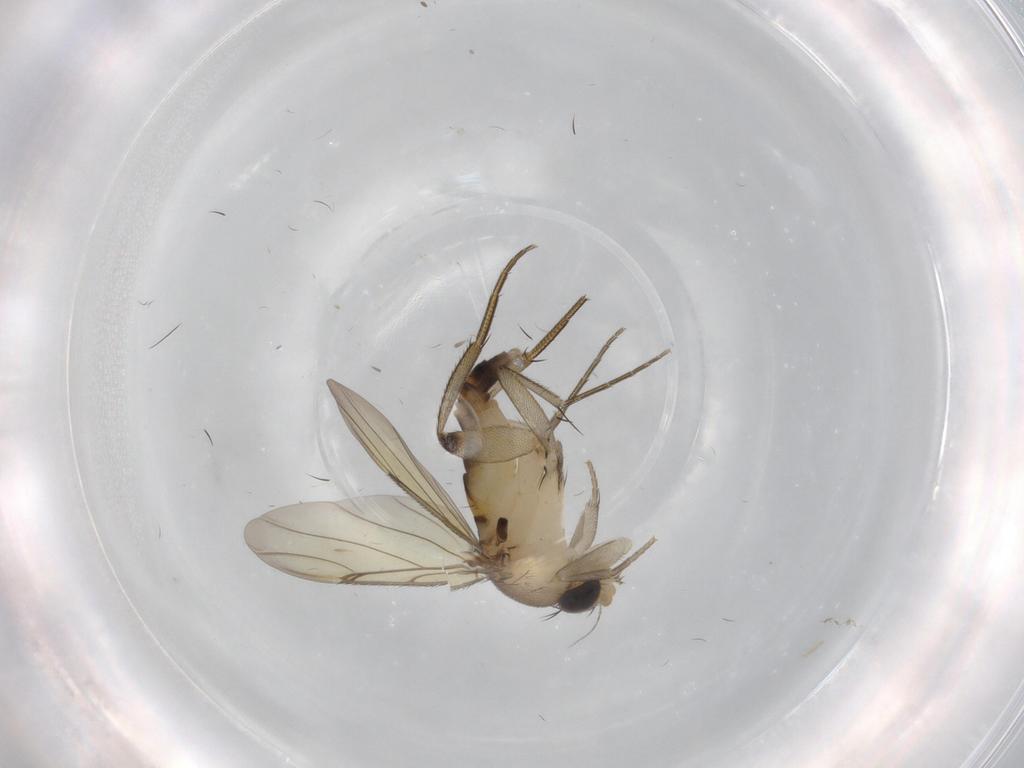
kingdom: Animalia
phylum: Arthropoda
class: Insecta
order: Diptera
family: Phoridae
